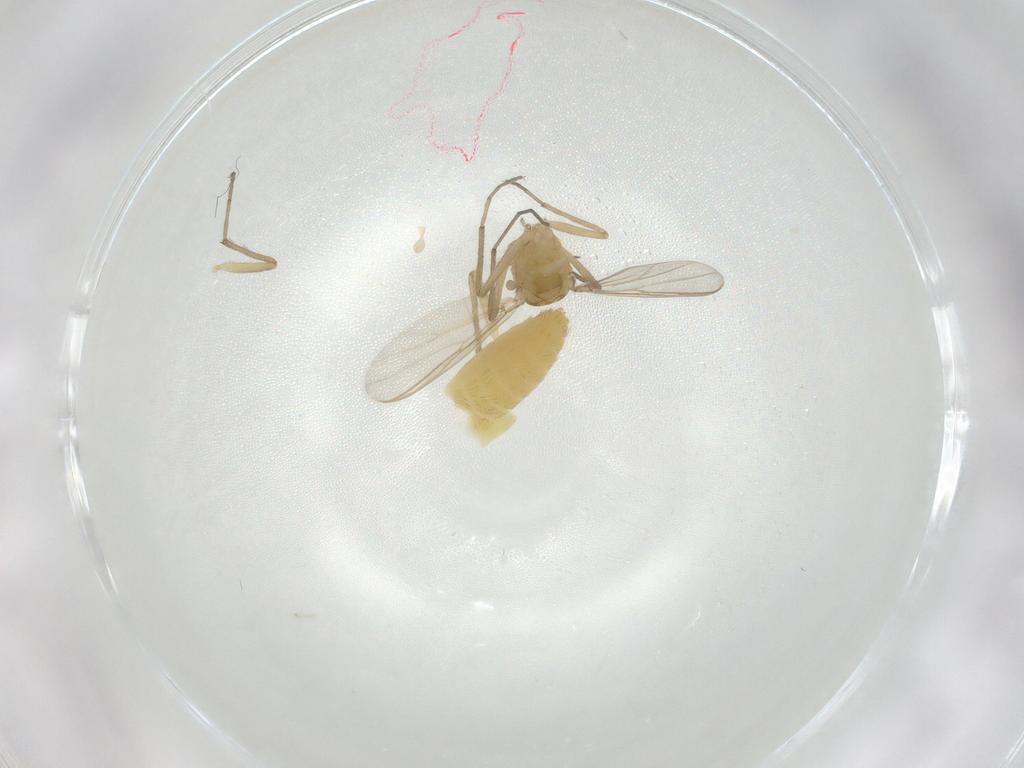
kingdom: Animalia
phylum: Arthropoda
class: Insecta
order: Diptera
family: Chironomidae
